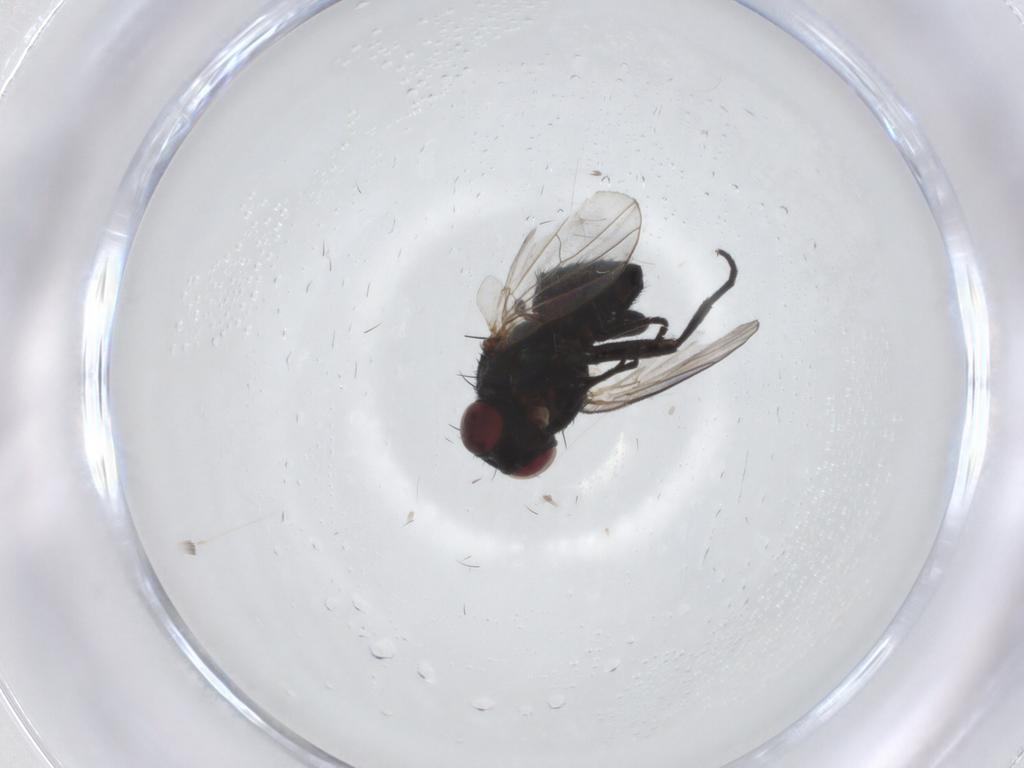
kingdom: Animalia
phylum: Arthropoda
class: Insecta
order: Diptera
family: Agromyzidae
